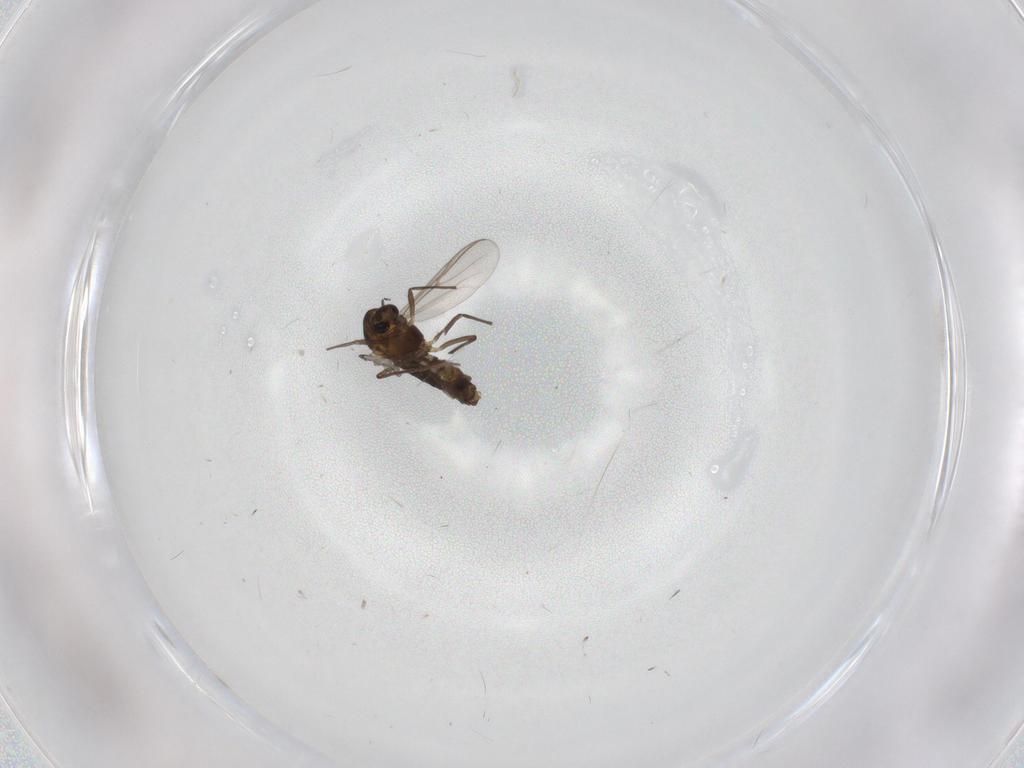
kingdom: Animalia
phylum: Arthropoda
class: Insecta
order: Diptera
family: Chironomidae
